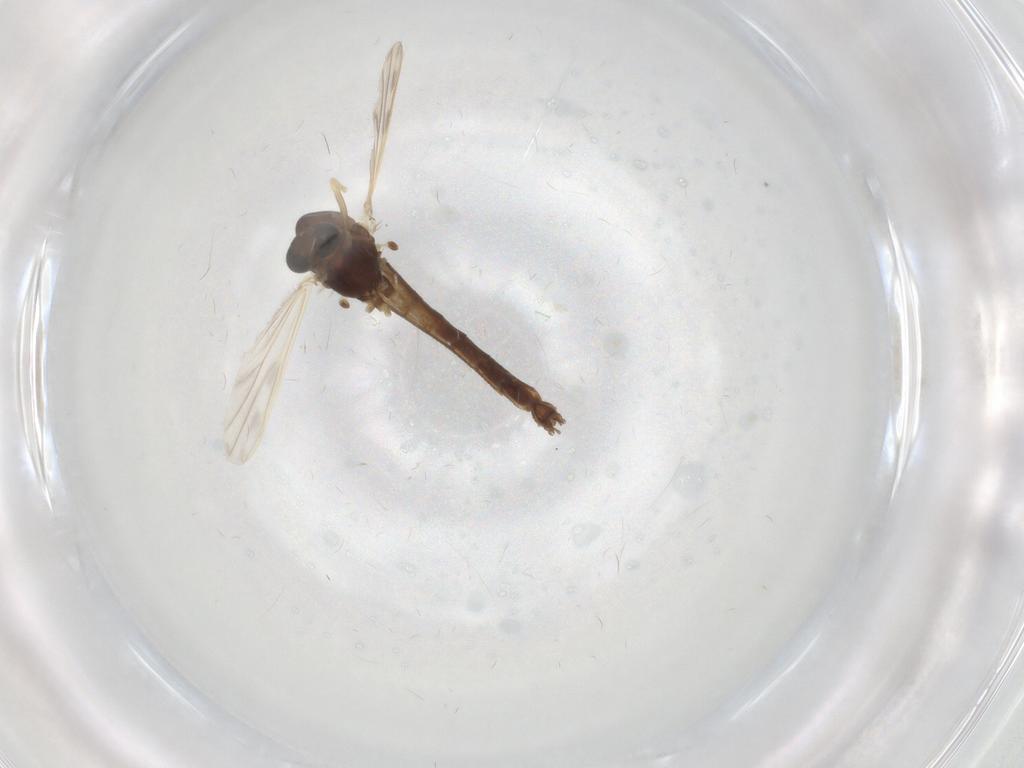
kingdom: Animalia
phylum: Arthropoda
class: Insecta
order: Diptera
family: Chironomidae
